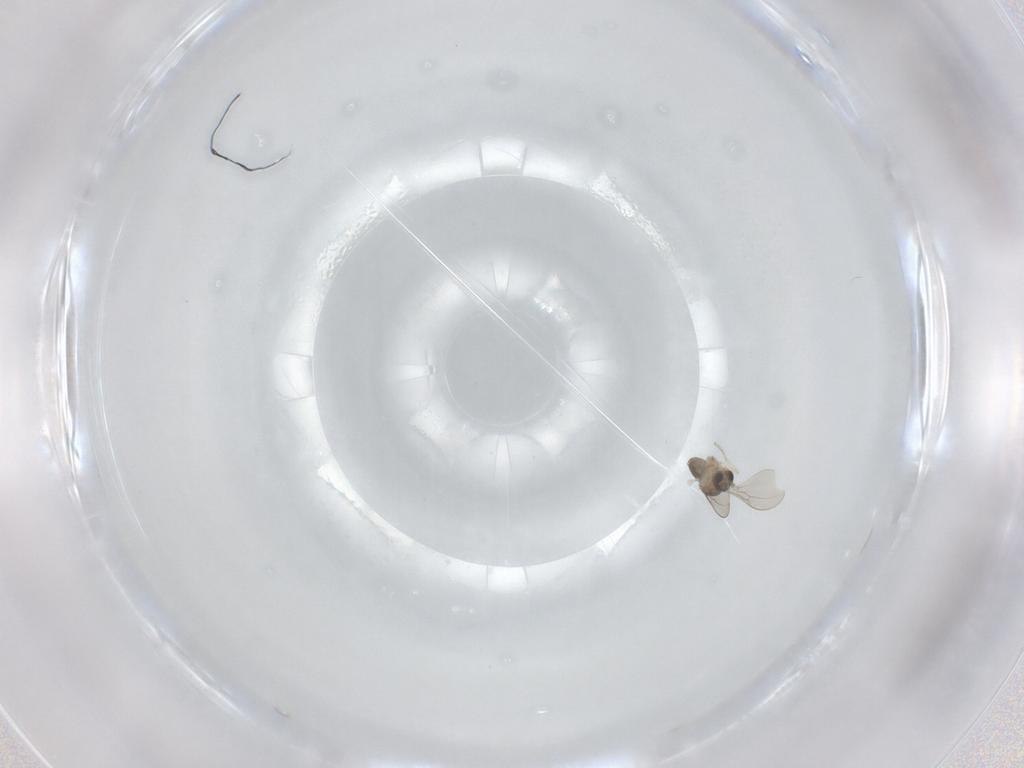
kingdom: Animalia
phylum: Arthropoda
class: Insecta
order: Diptera
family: Cecidomyiidae
